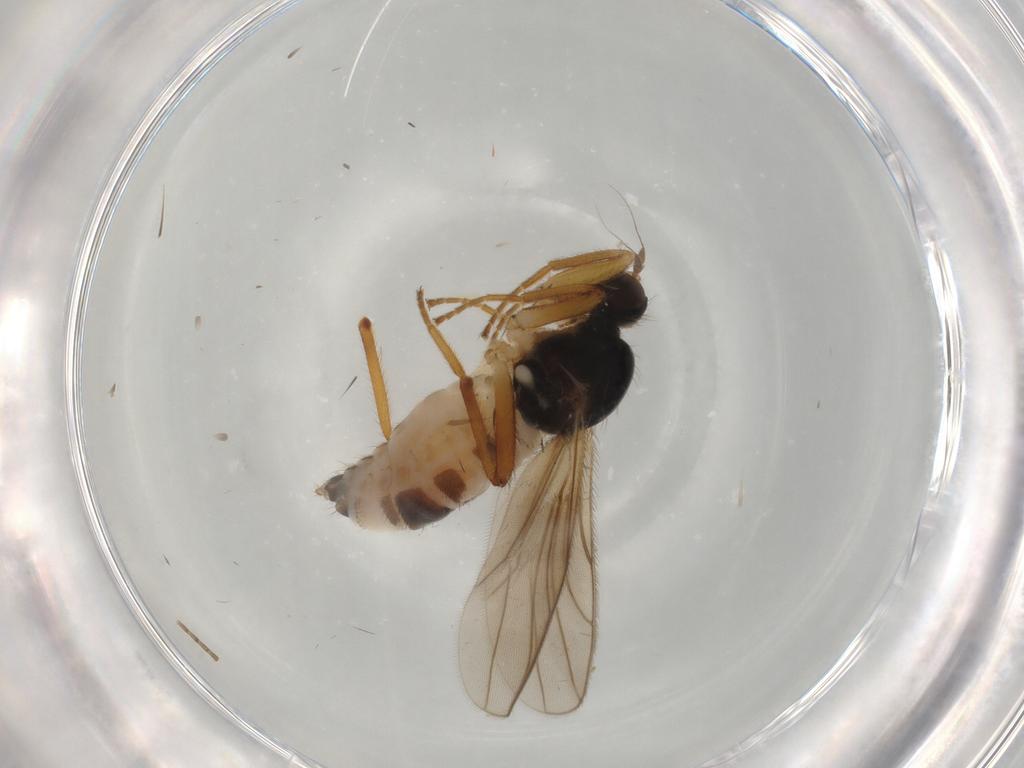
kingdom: Animalia
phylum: Arthropoda
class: Insecta
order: Diptera
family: Hybotidae
